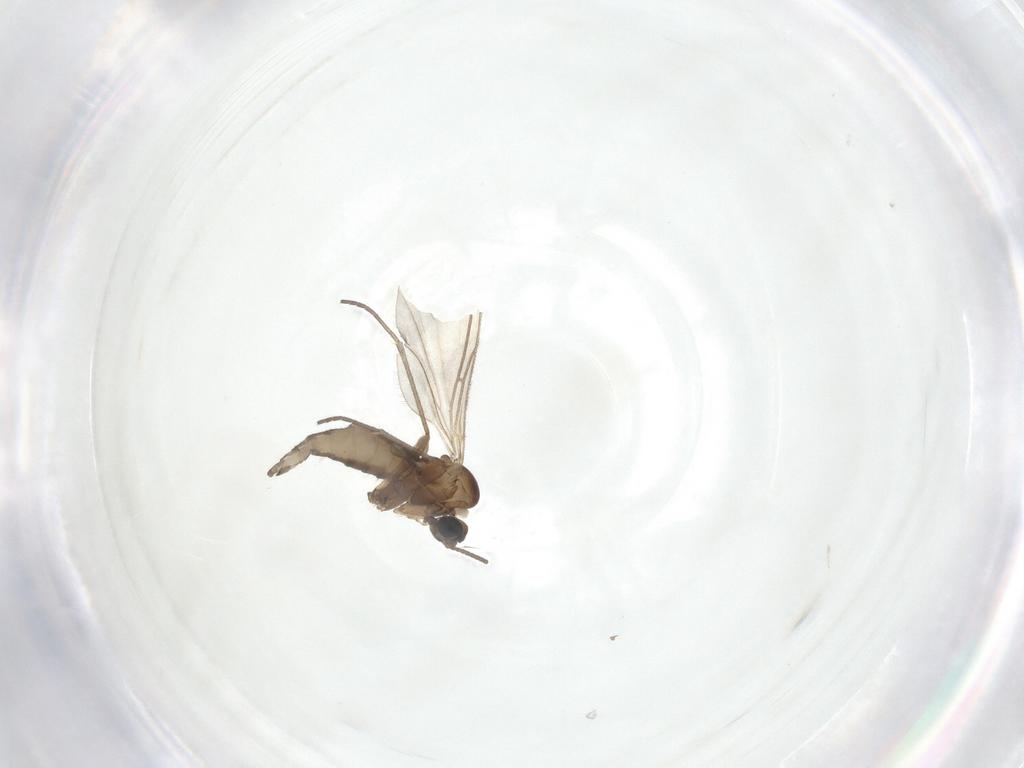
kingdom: Animalia
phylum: Arthropoda
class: Insecta
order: Diptera
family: Sciaridae
